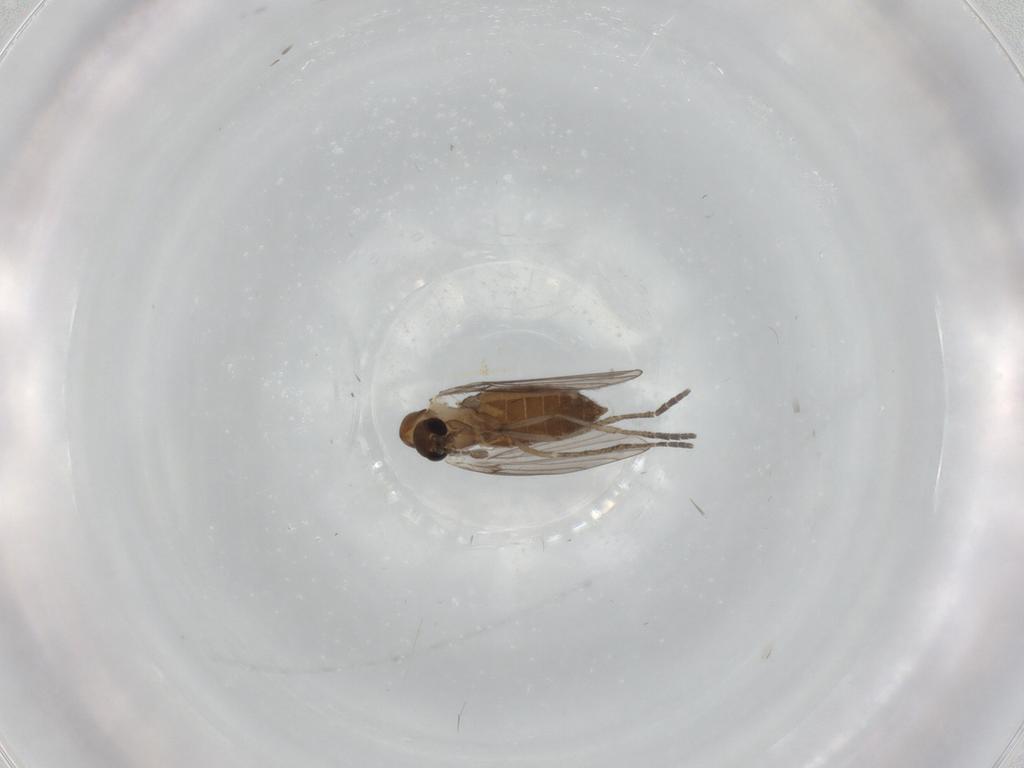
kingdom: Animalia
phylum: Arthropoda
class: Insecta
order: Diptera
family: Psychodidae
